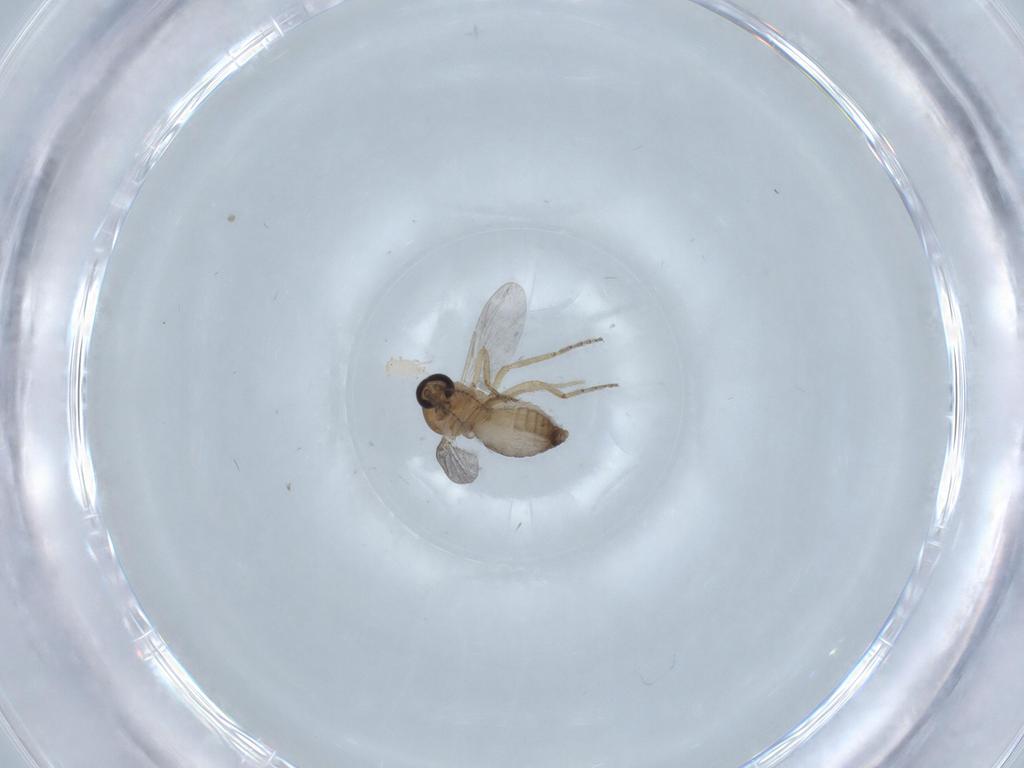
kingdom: Animalia
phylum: Arthropoda
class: Insecta
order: Diptera
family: Ceratopogonidae
